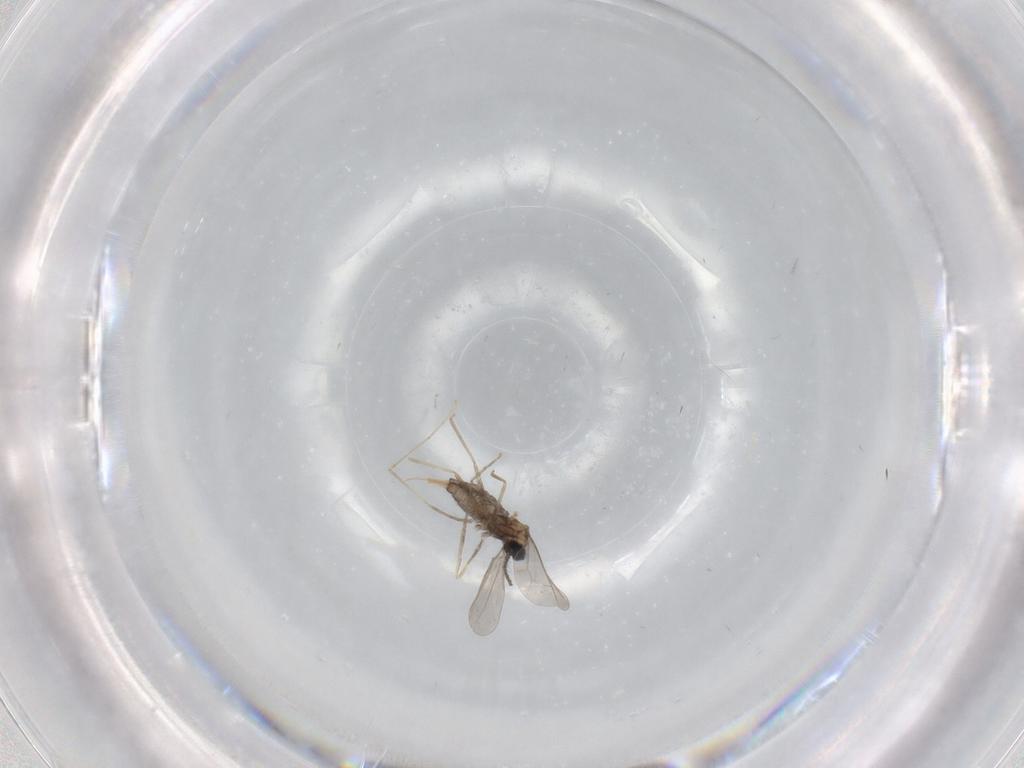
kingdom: Animalia
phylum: Arthropoda
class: Insecta
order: Diptera
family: Cecidomyiidae
